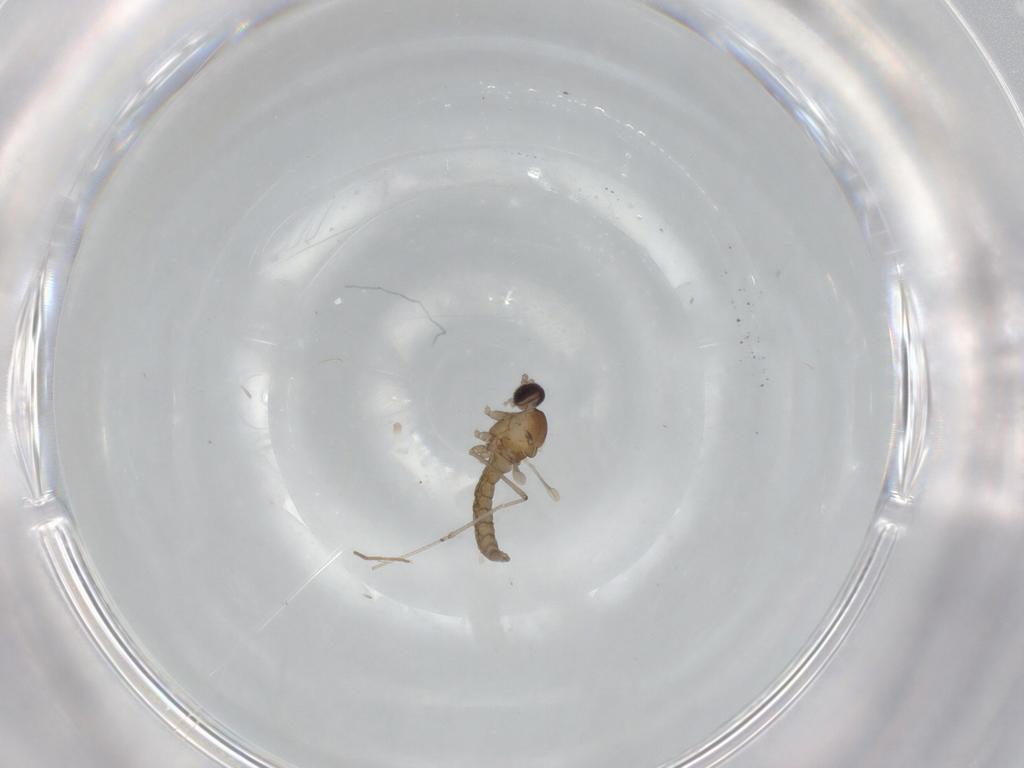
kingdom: Animalia
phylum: Arthropoda
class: Insecta
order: Diptera
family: Cecidomyiidae
